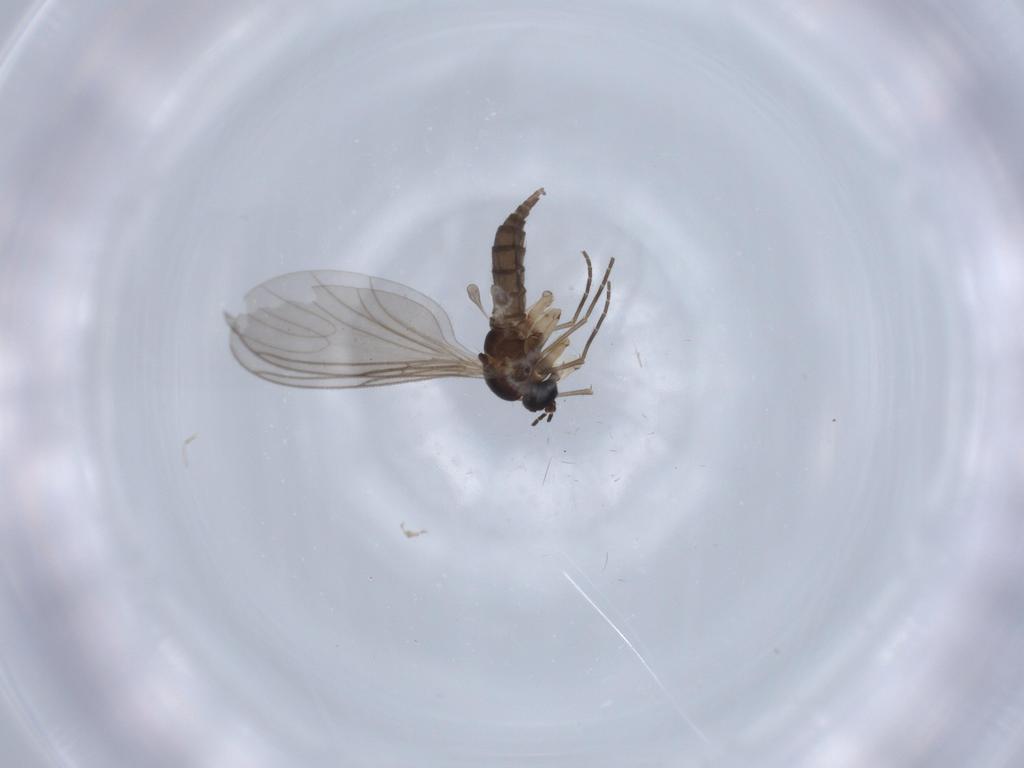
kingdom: Animalia
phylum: Arthropoda
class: Insecta
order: Diptera
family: Sciaridae
